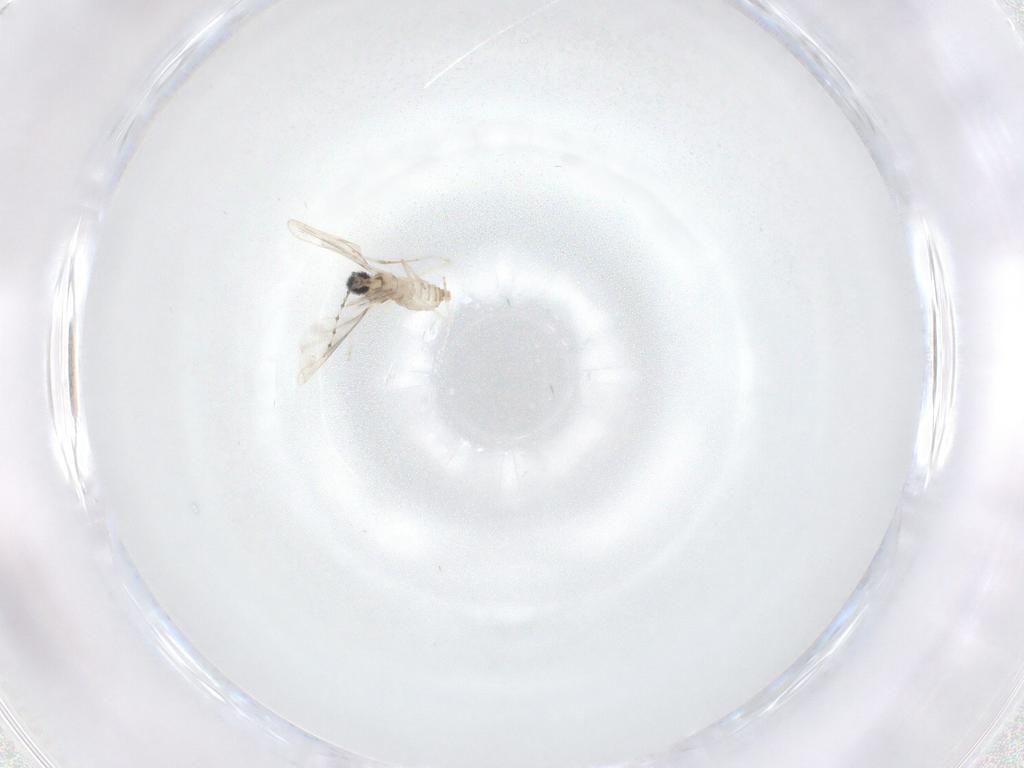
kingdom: Animalia
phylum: Arthropoda
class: Insecta
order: Diptera
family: Cecidomyiidae
